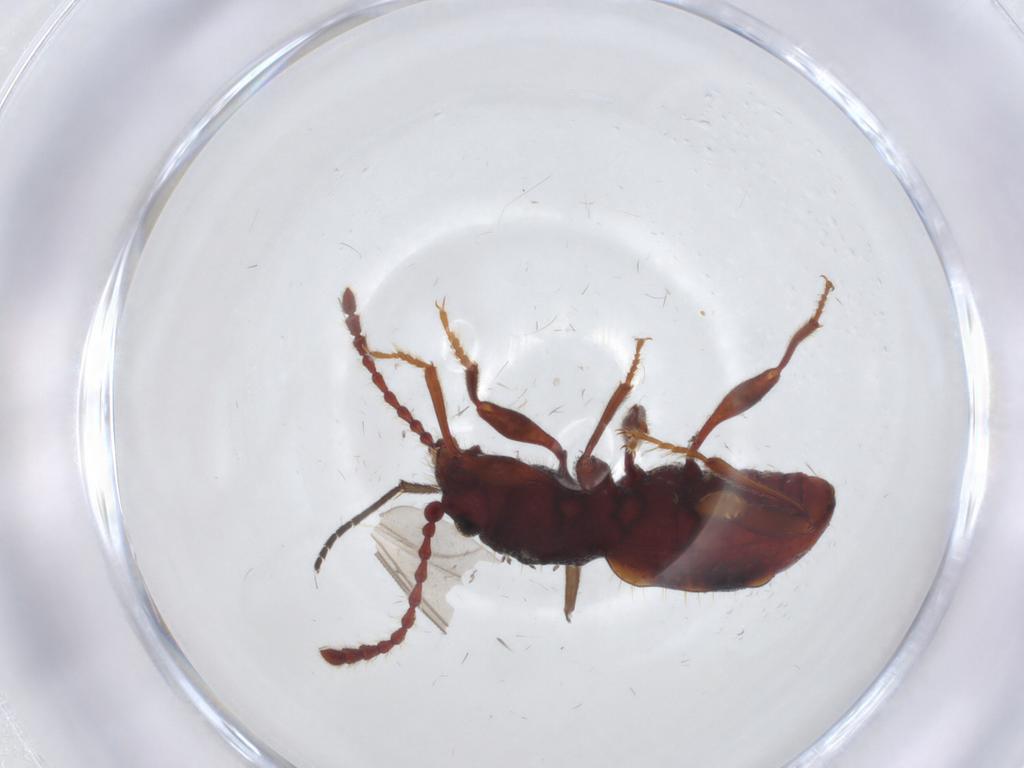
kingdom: Animalia
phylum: Arthropoda
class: Insecta
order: Coleoptera
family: Ptinidae
